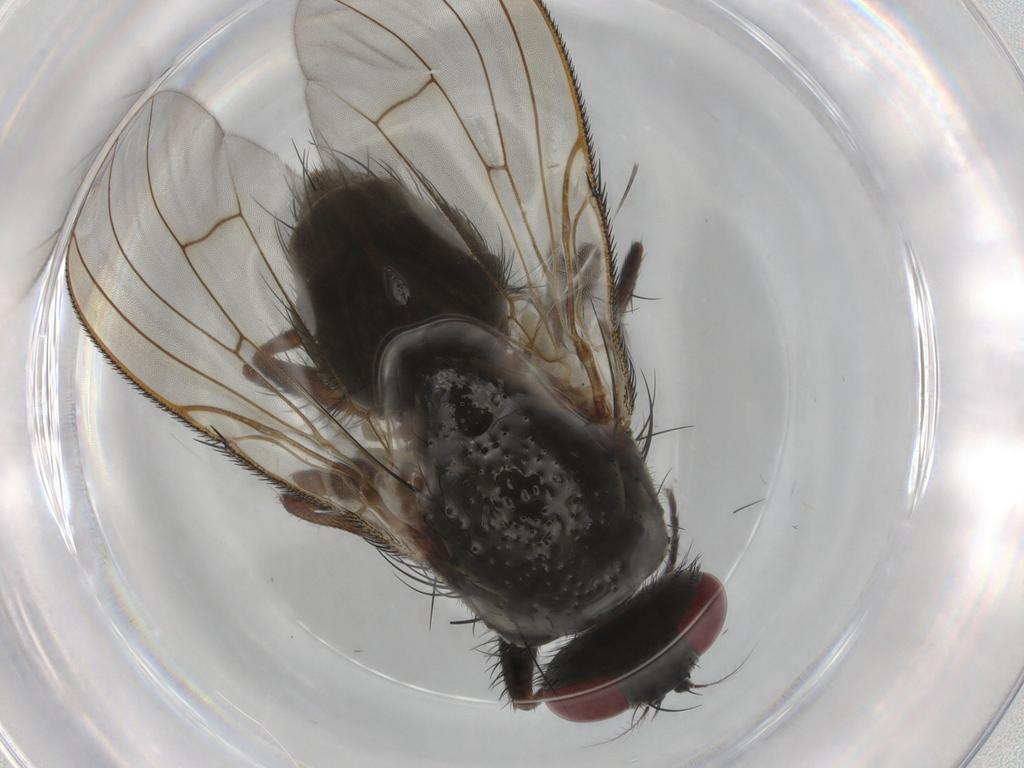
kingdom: Animalia
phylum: Arthropoda
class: Insecta
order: Diptera
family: Muscidae
